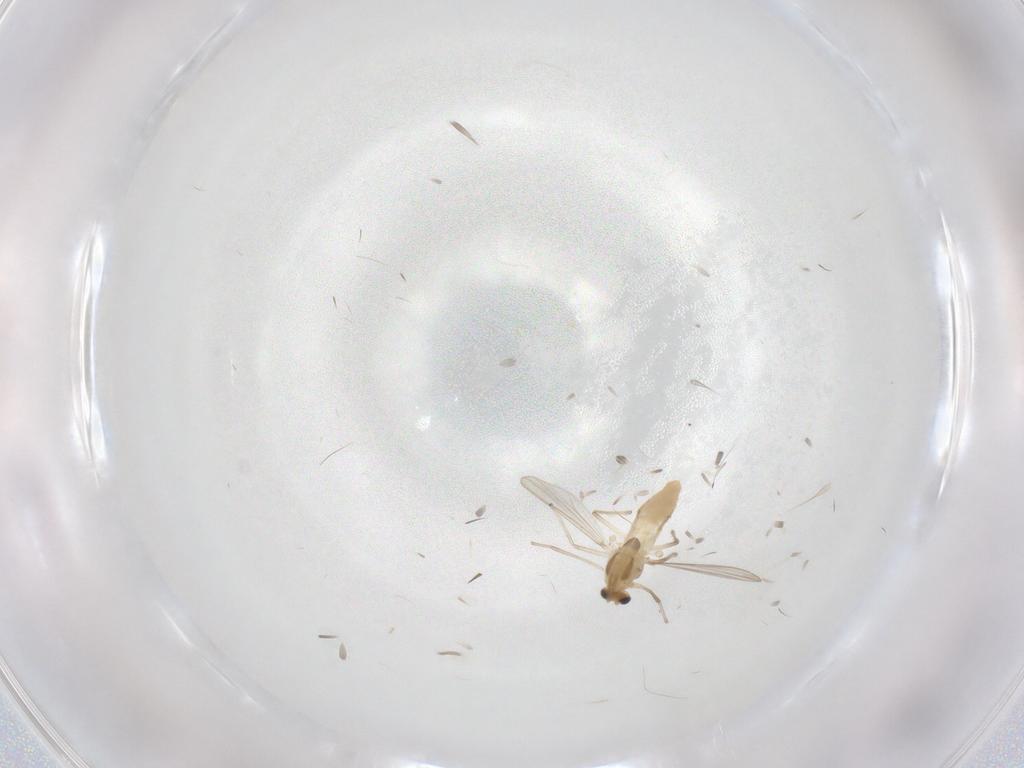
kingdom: Animalia
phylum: Arthropoda
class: Insecta
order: Diptera
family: Chironomidae
